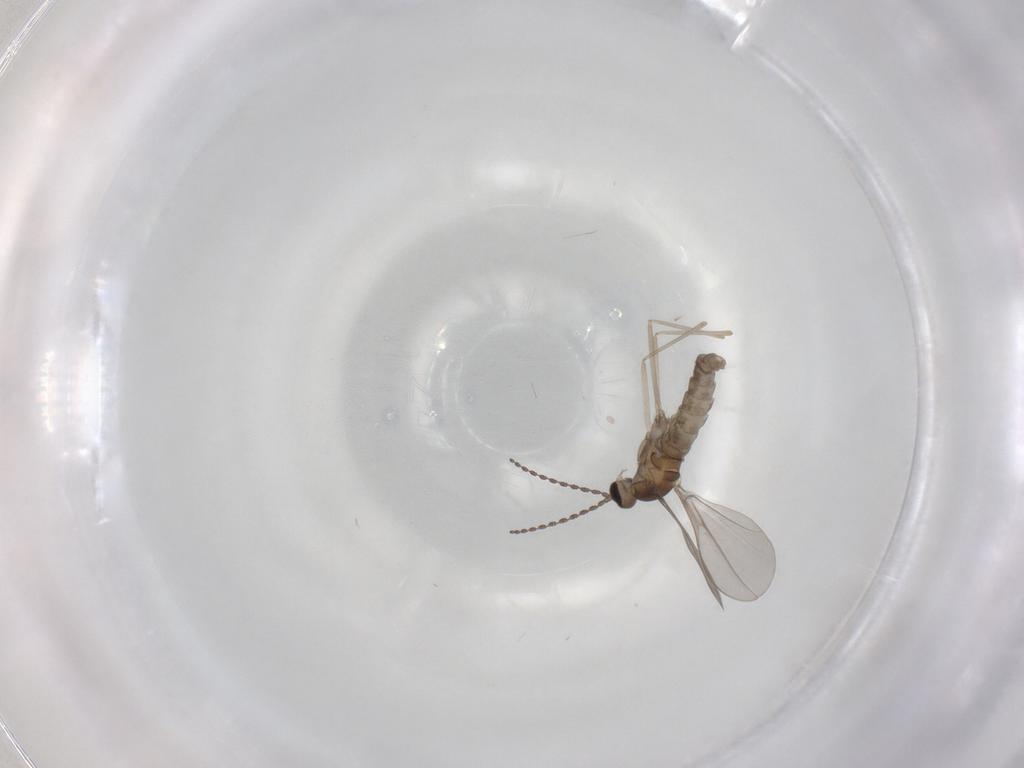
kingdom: Animalia
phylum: Arthropoda
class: Insecta
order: Diptera
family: Cecidomyiidae
